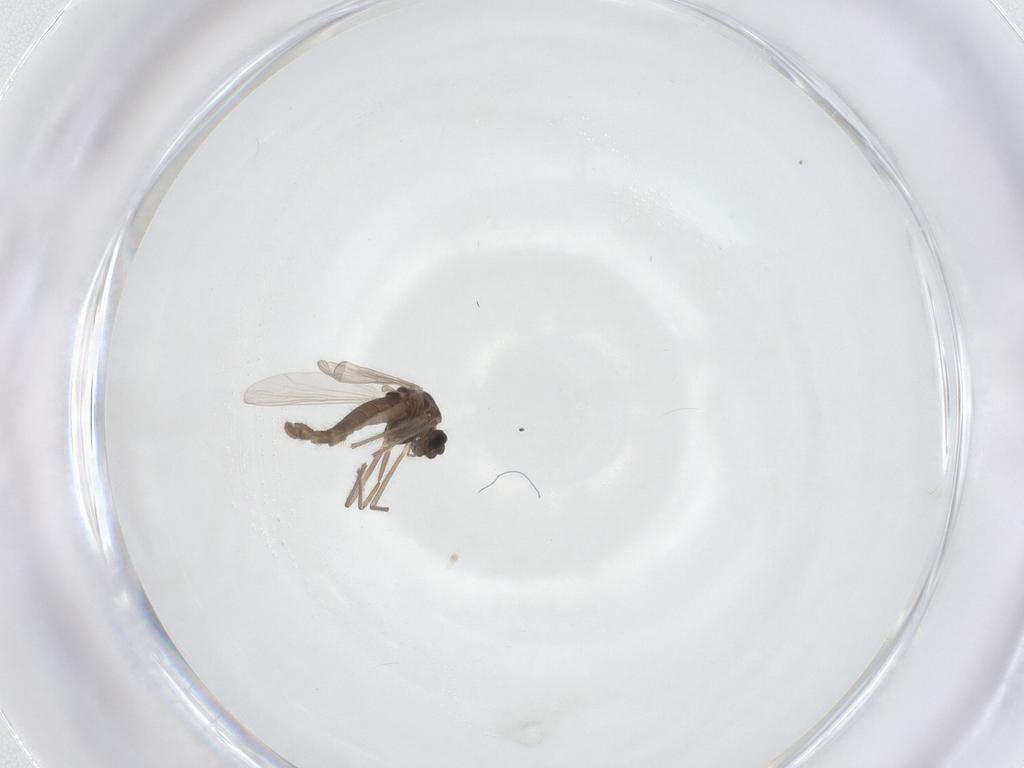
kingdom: Animalia
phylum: Arthropoda
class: Insecta
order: Diptera
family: Chironomidae
